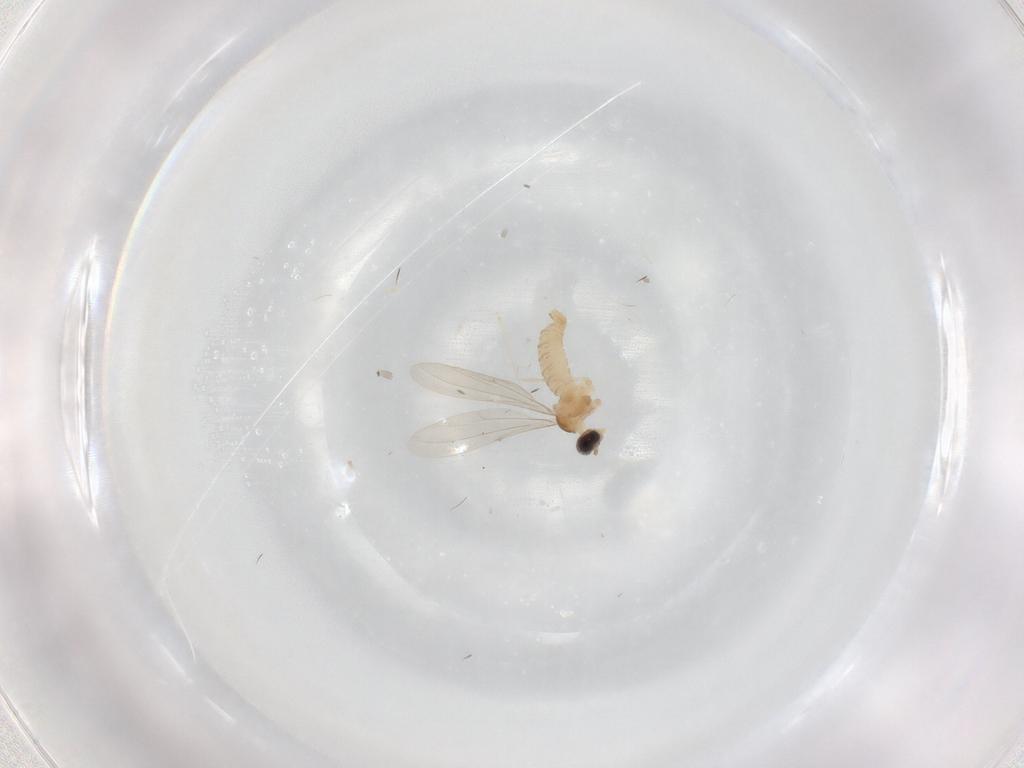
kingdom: Animalia
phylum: Arthropoda
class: Insecta
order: Diptera
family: Cecidomyiidae
